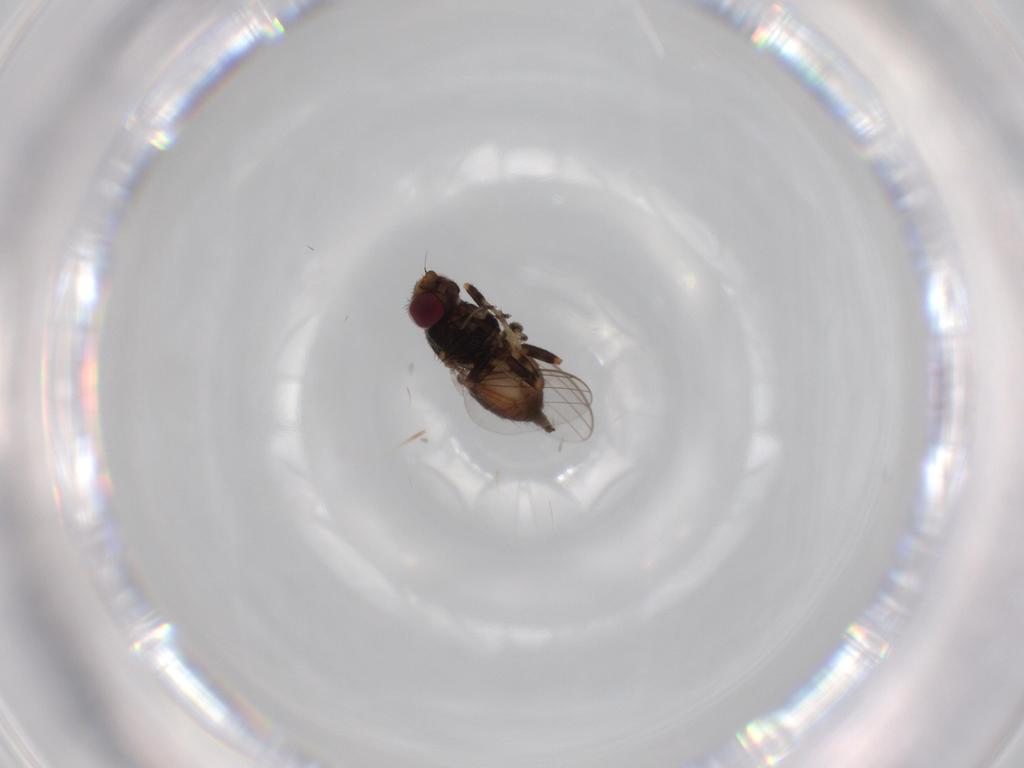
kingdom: Animalia
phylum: Arthropoda
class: Insecta
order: Diptera
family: Chloropidae
